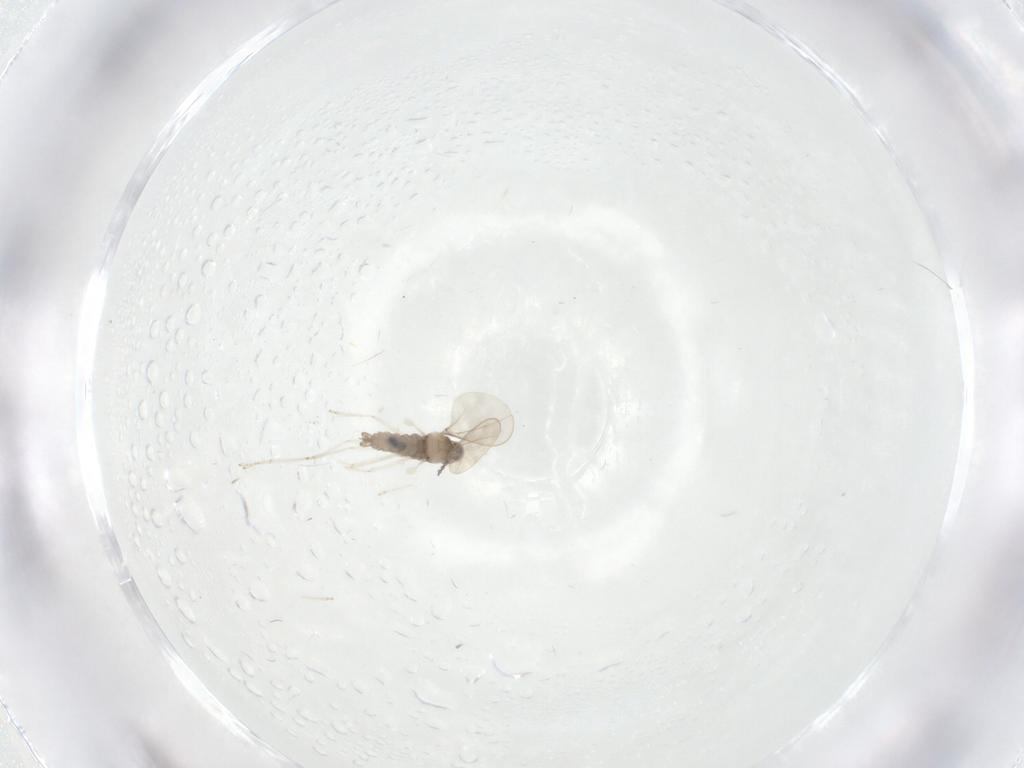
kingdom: Animalia
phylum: Arthropoda
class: Insecta
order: Diptera
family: Cecidomyiidae
